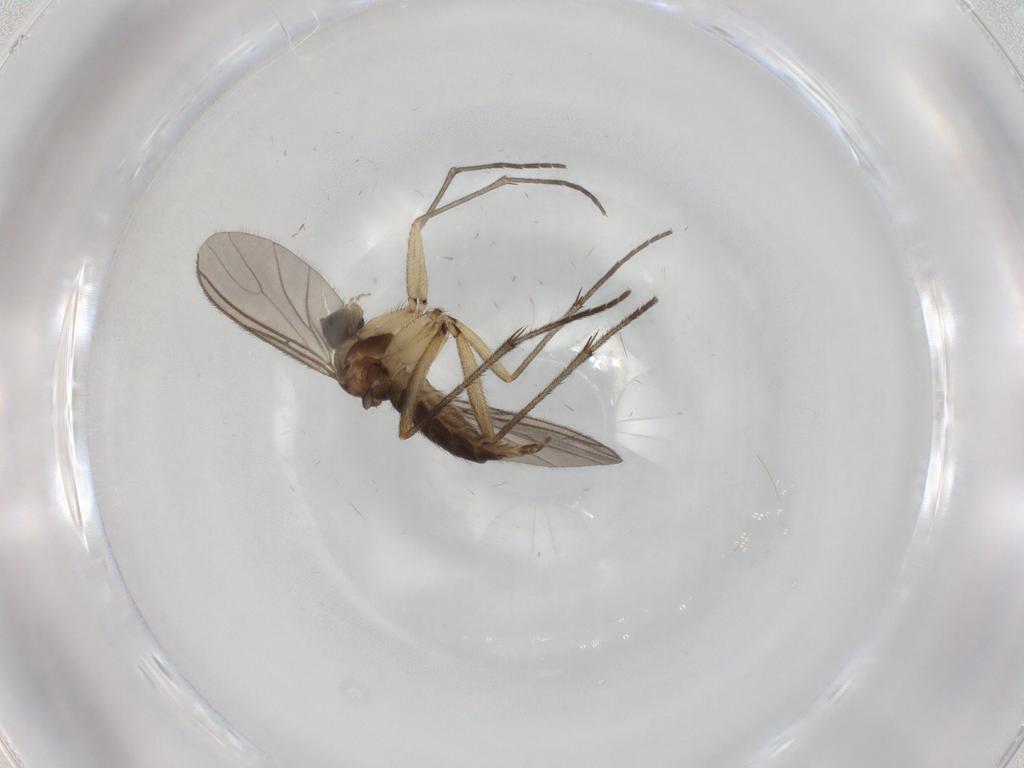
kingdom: Animalia
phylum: Arthropoda
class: Insecta
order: Diptera
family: Sciaridae
